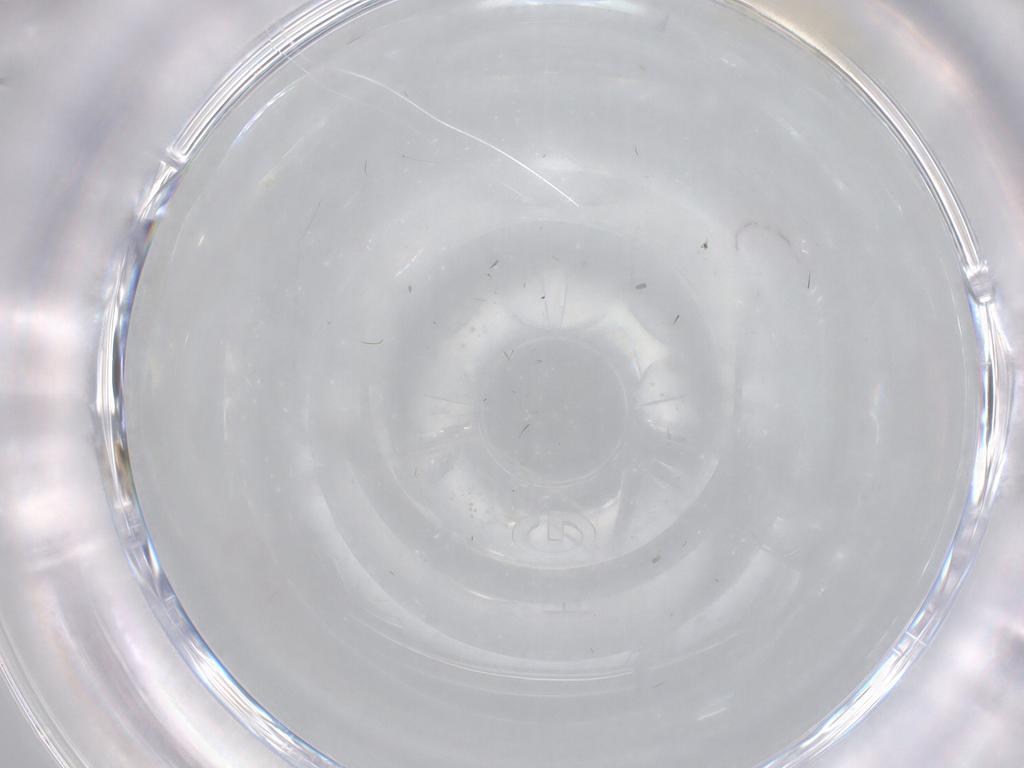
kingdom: Animalia
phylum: Arthropoda
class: Insecta
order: Diptera
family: Cecidomyiidae
